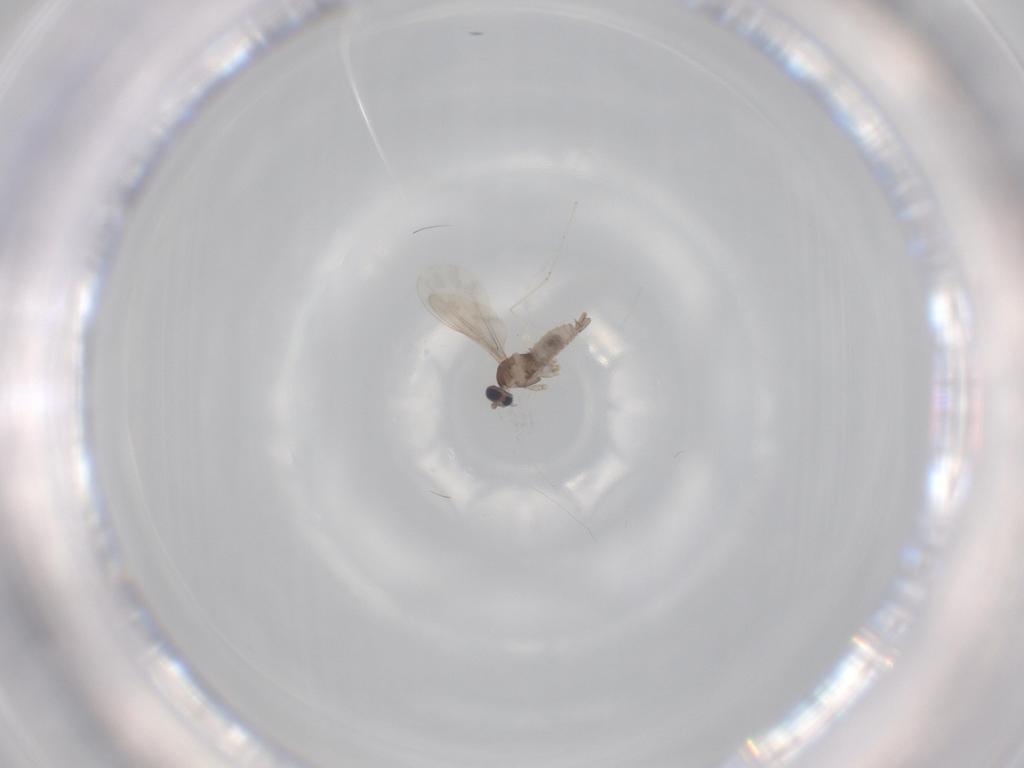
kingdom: Animalia
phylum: Arthropoda
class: Insecta
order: Diptera
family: Cecidomyiidae
